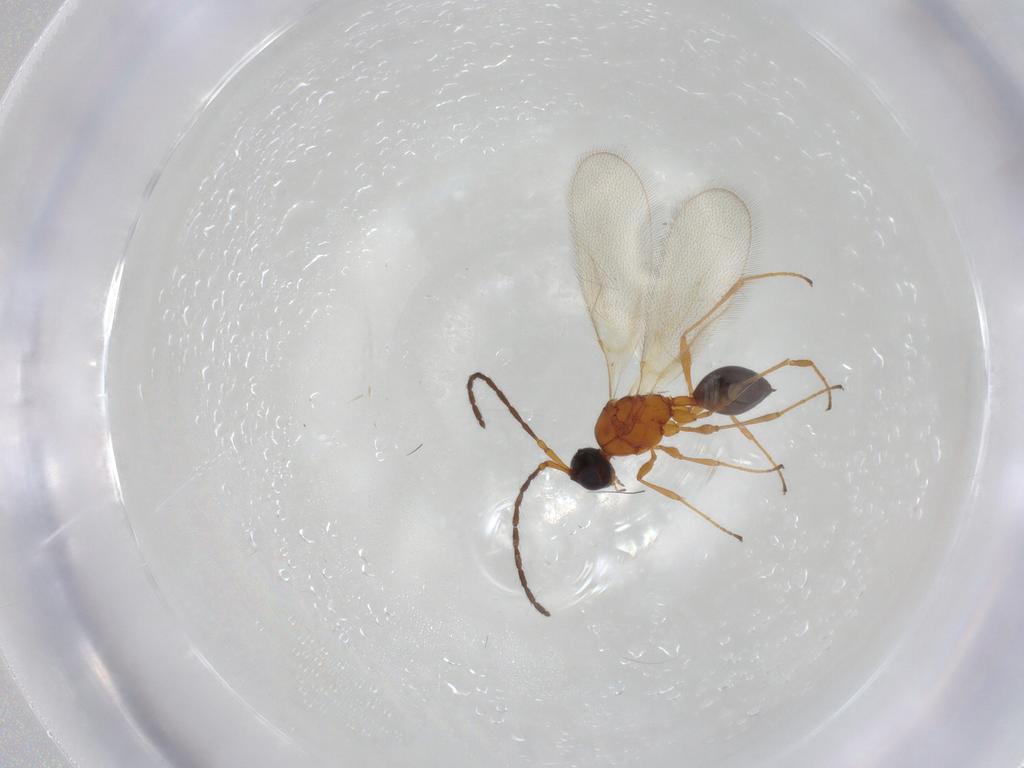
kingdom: Animalia
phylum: Arthropoda
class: Insecta
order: Hymenoptera
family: Diapriidae
